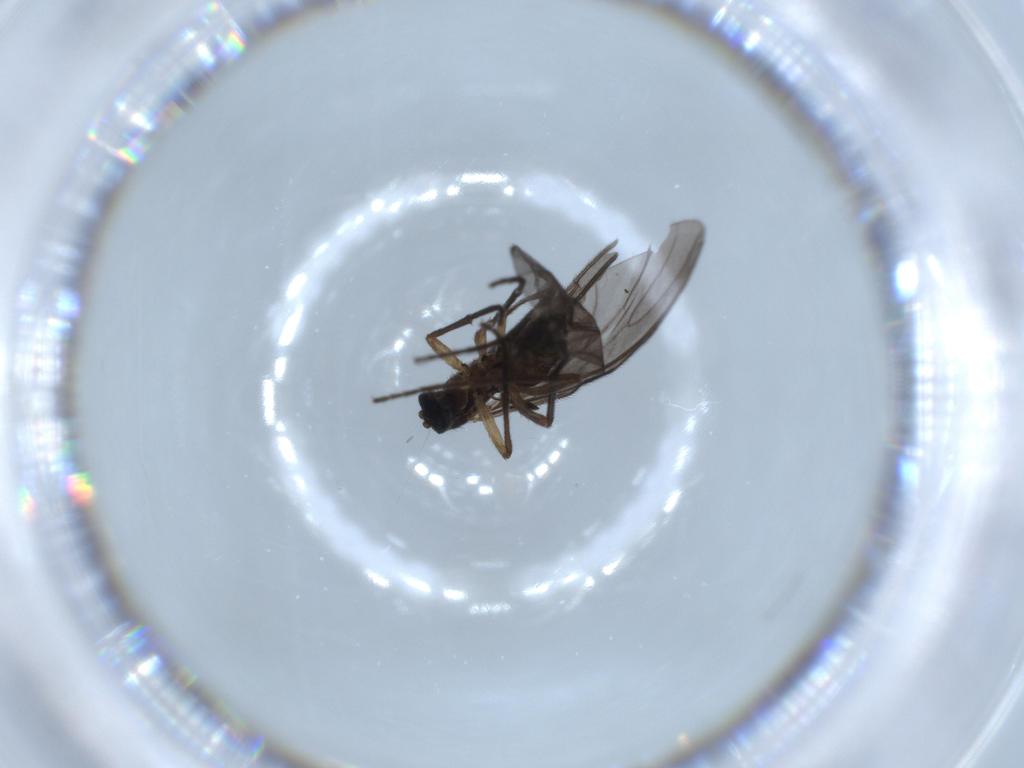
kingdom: Animalia
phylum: Arthropoda
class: Insecta
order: Diptera
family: Sciaridae
